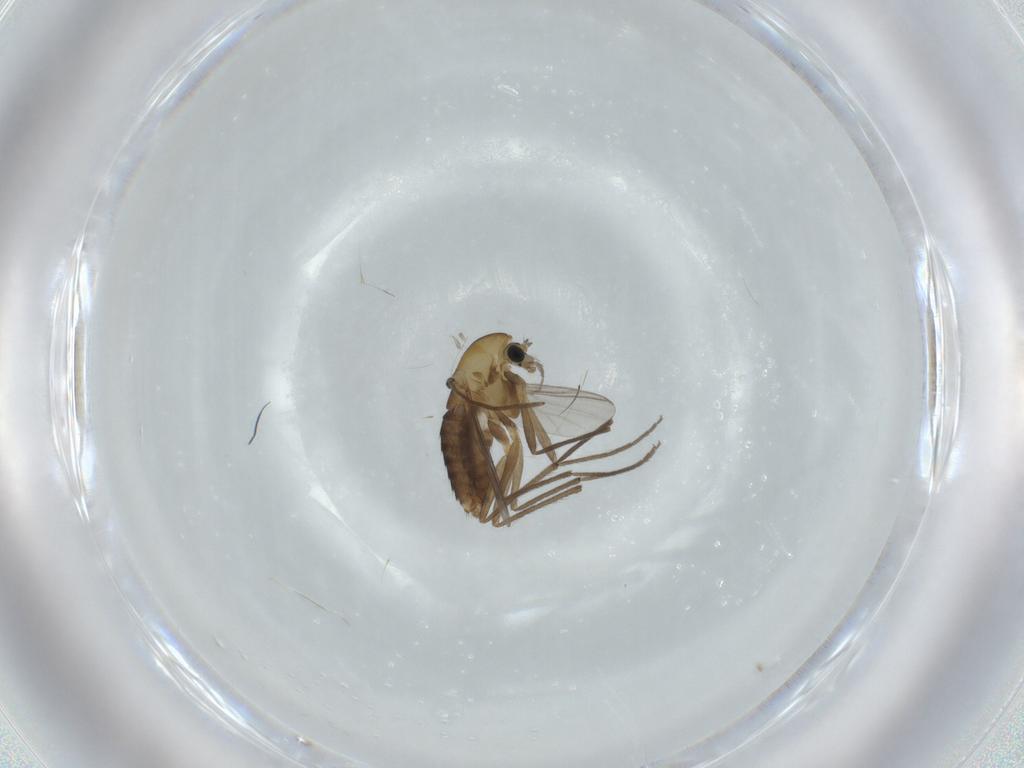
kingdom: Animalia
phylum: Arthropoda
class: Insecta
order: Diptera
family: Chironomidae
